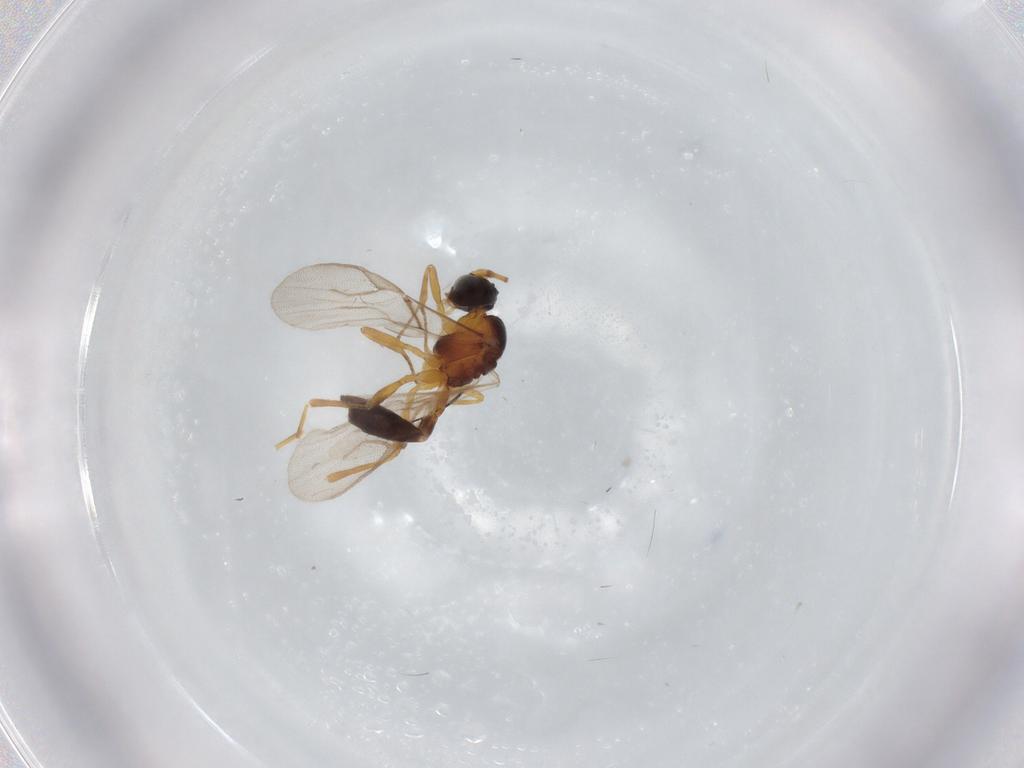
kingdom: Animalia
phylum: Arthropoda
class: Insecta
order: Hymenoptera
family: Braconidae
